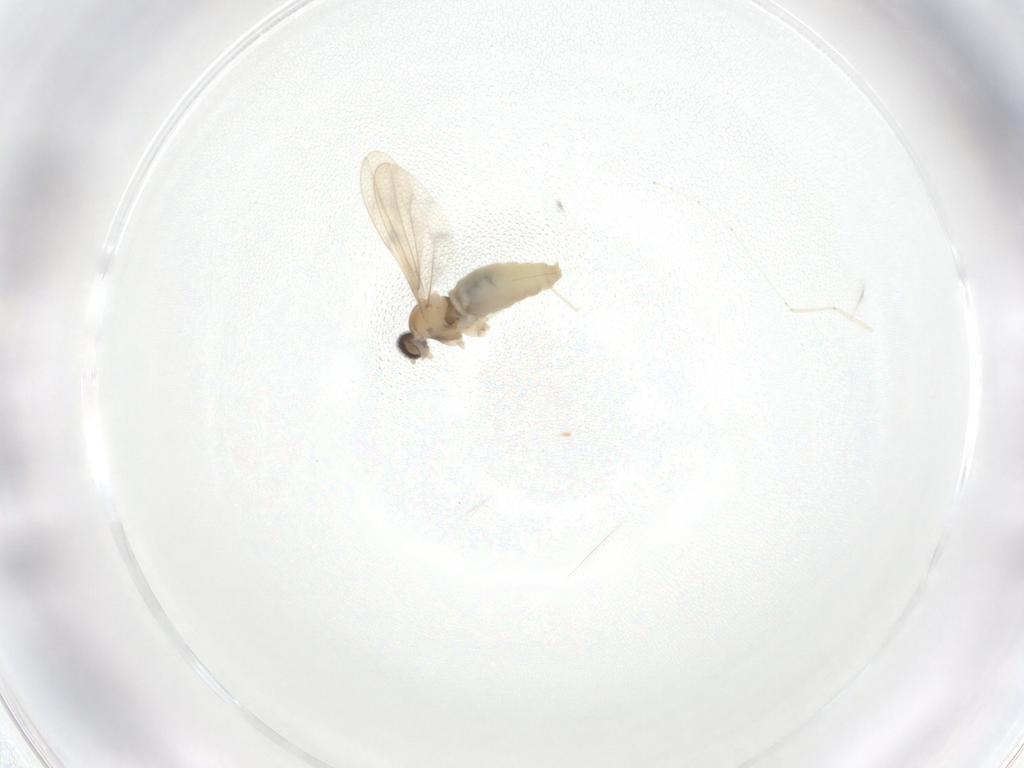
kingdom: Animalia
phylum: Arthropoda
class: Insecta
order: Diptera
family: Cecidomyiidae
